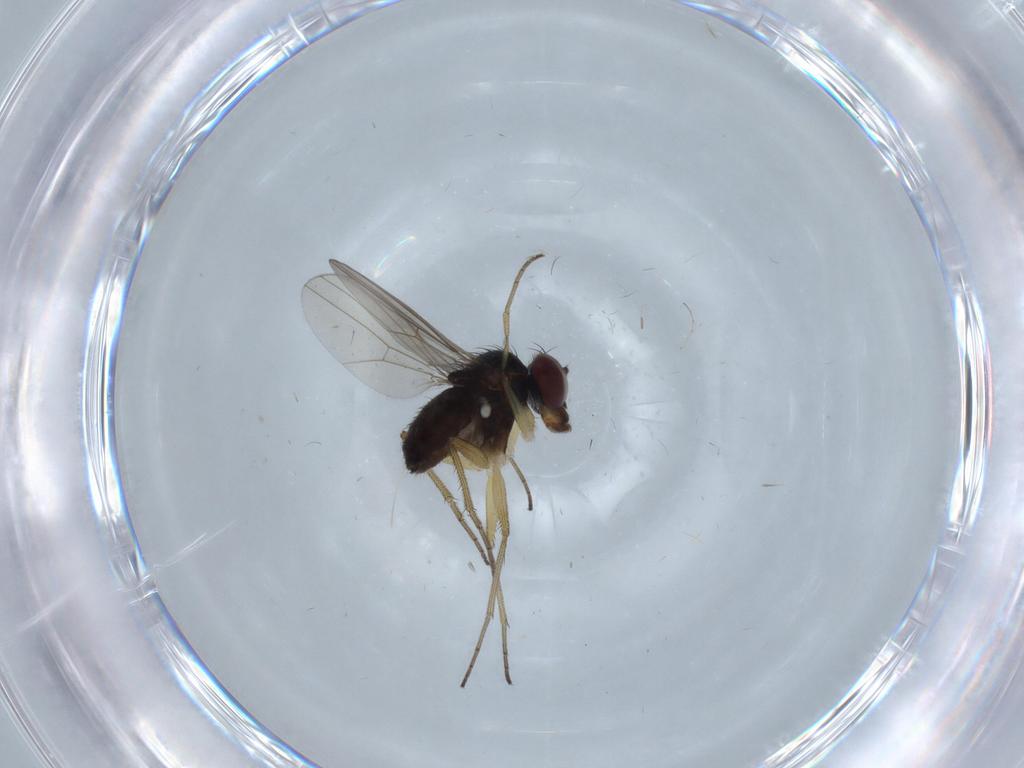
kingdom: Animalia
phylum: Arthropoda
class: Insecta
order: Diptera
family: Dolichopodidae
